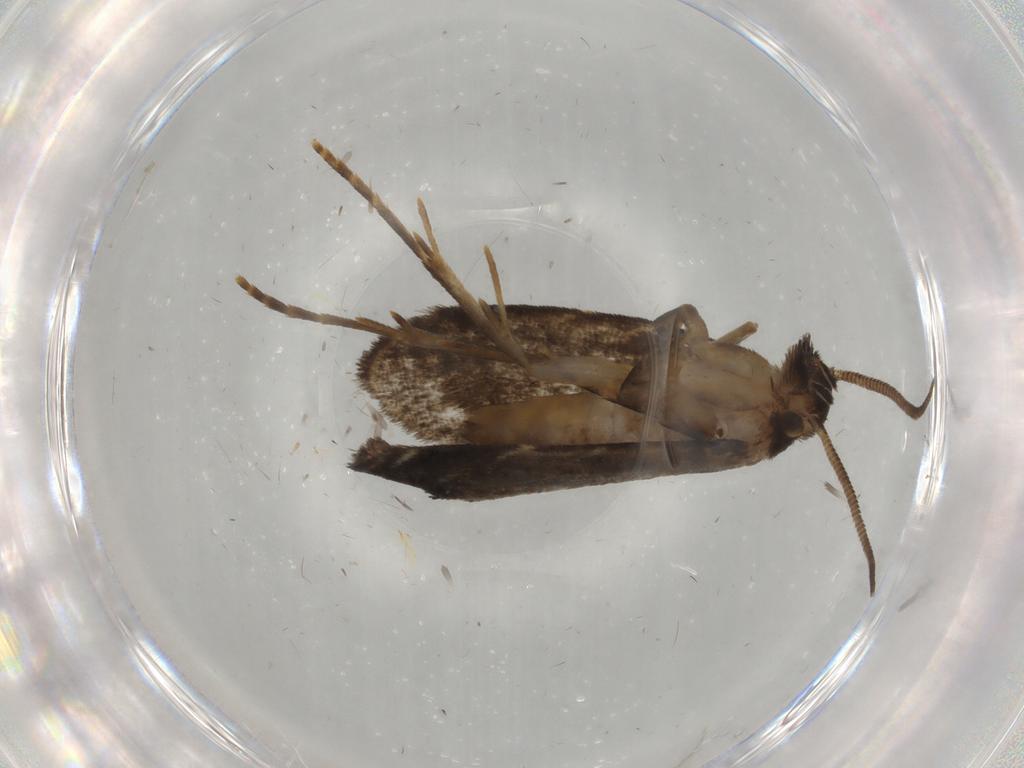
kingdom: Animalia
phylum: Arthropoda
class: Insecta
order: Lepidoptera
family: Dryadaulidae
